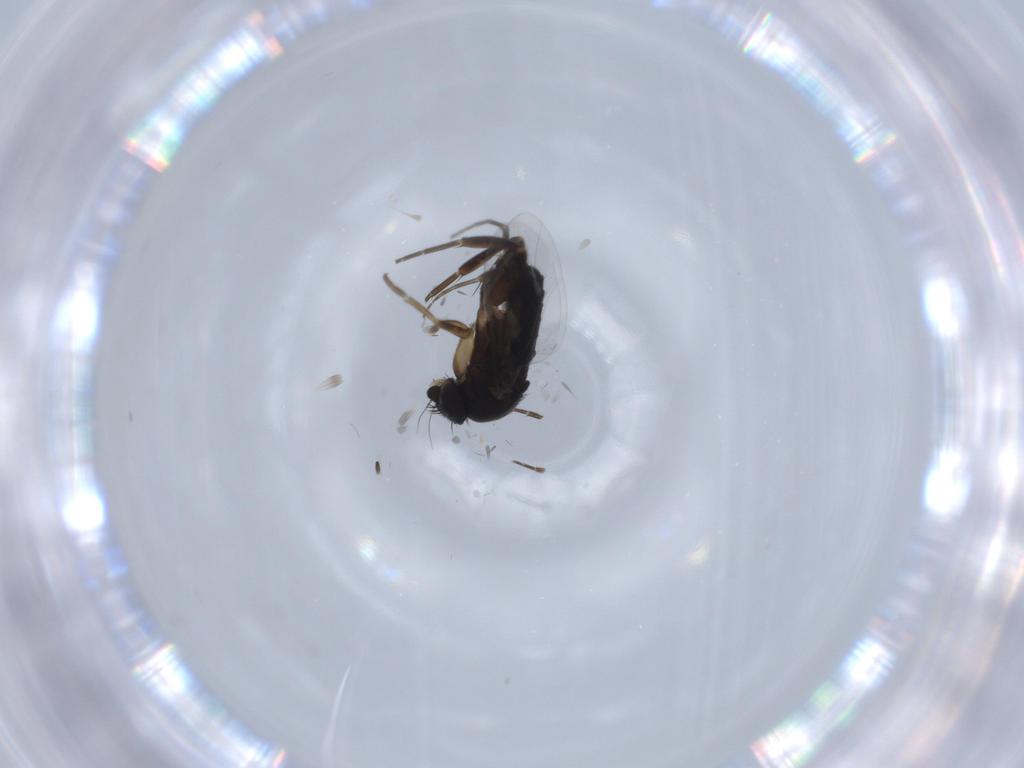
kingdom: Animalia
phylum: Arthropoda
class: Insecta
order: Diptera
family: Phoridae
